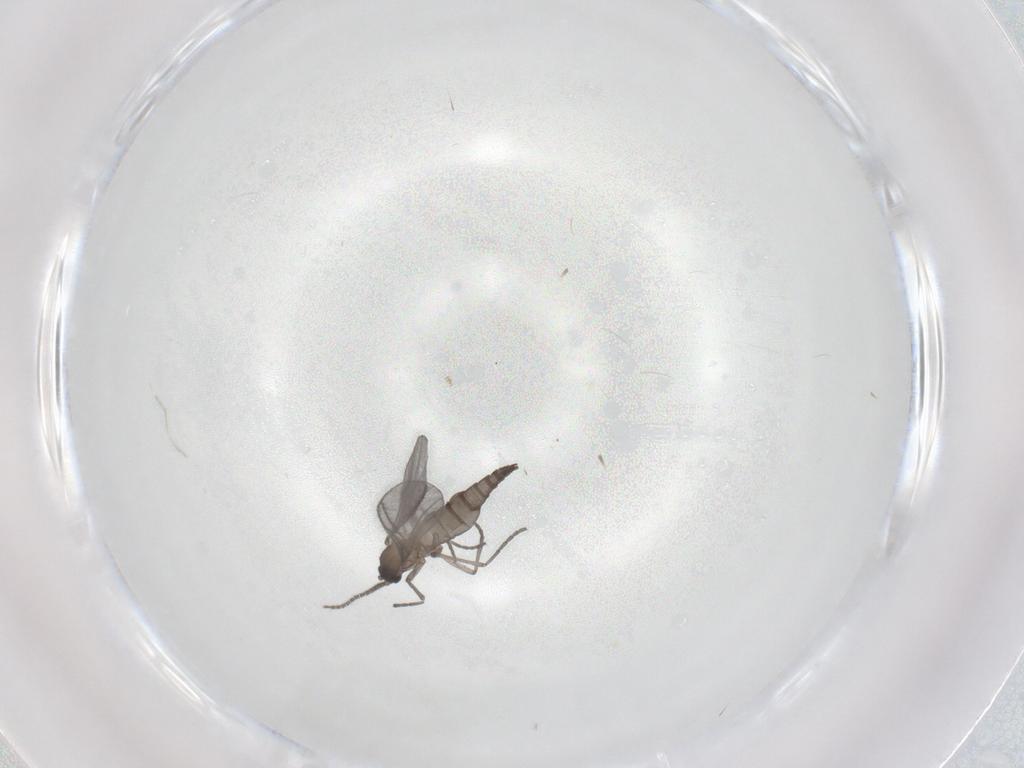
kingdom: Animalia
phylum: Arthropoda
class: Insecta
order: Diptera
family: Sciaridae
